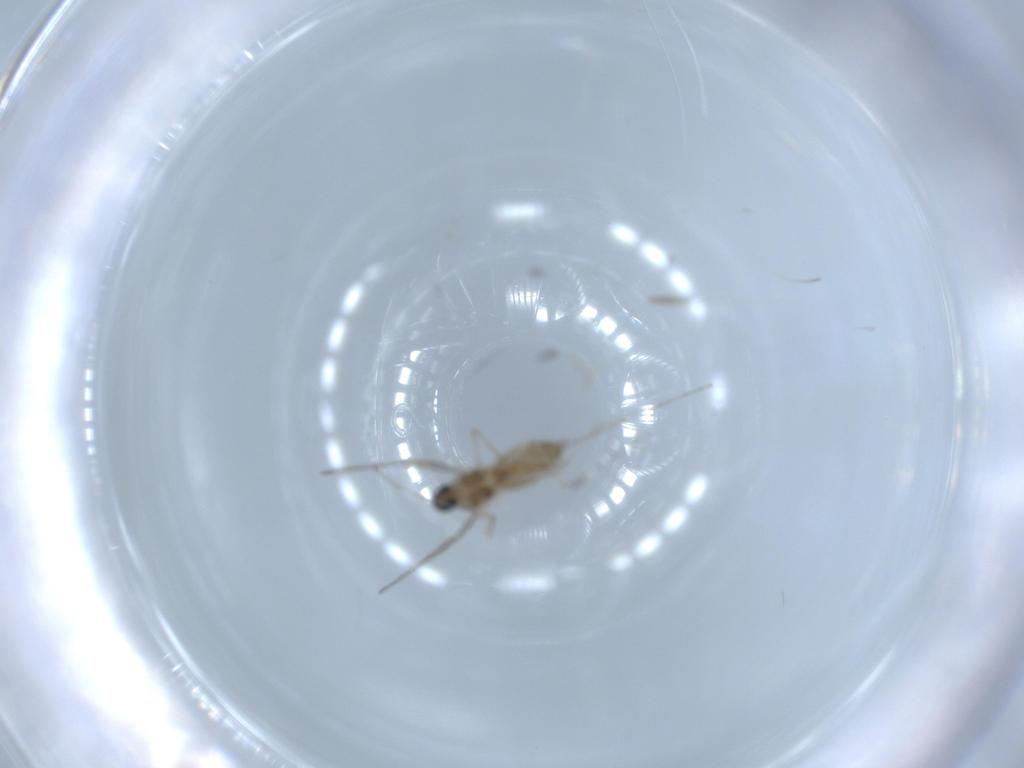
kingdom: Animalia
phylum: Arthropoda
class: Insecta
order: Diptera
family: Cecidomyiidae
